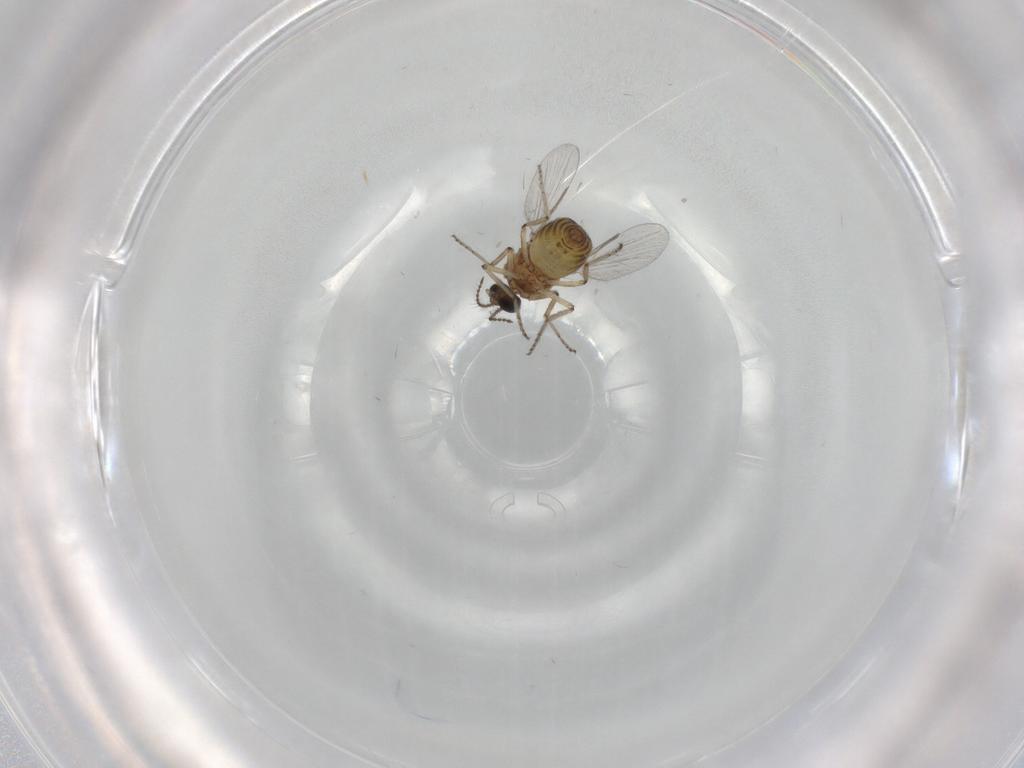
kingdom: Animalia
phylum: Arthropoda
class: Insecta
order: Diptera
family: Ceratopogonidae
